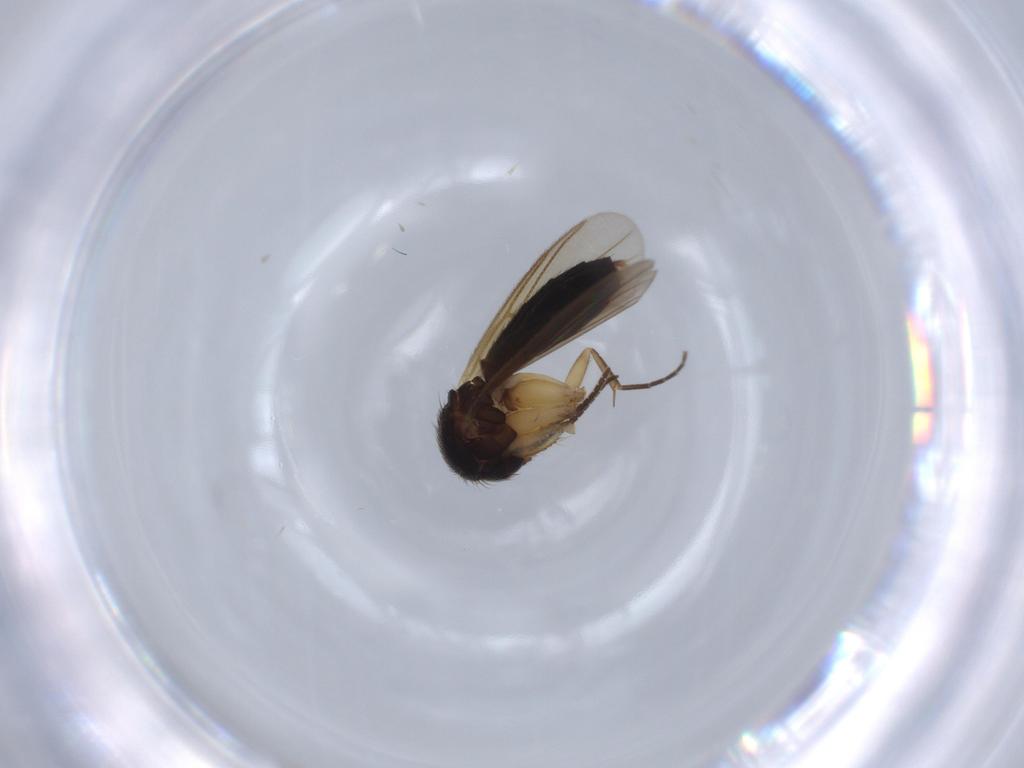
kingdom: Animalia
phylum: Arthropoda
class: Insecta
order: Diptera
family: Mycetophilidae
